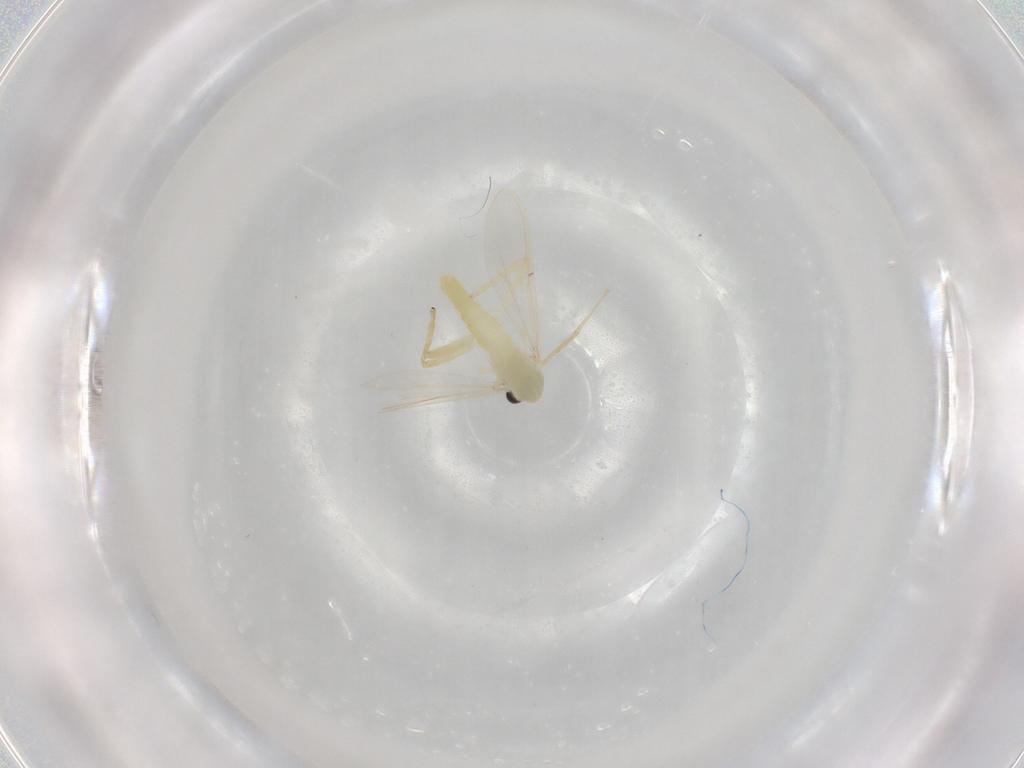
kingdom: Animalia
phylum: Arthropoda
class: Insecta
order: Diptera
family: Chironomidae
